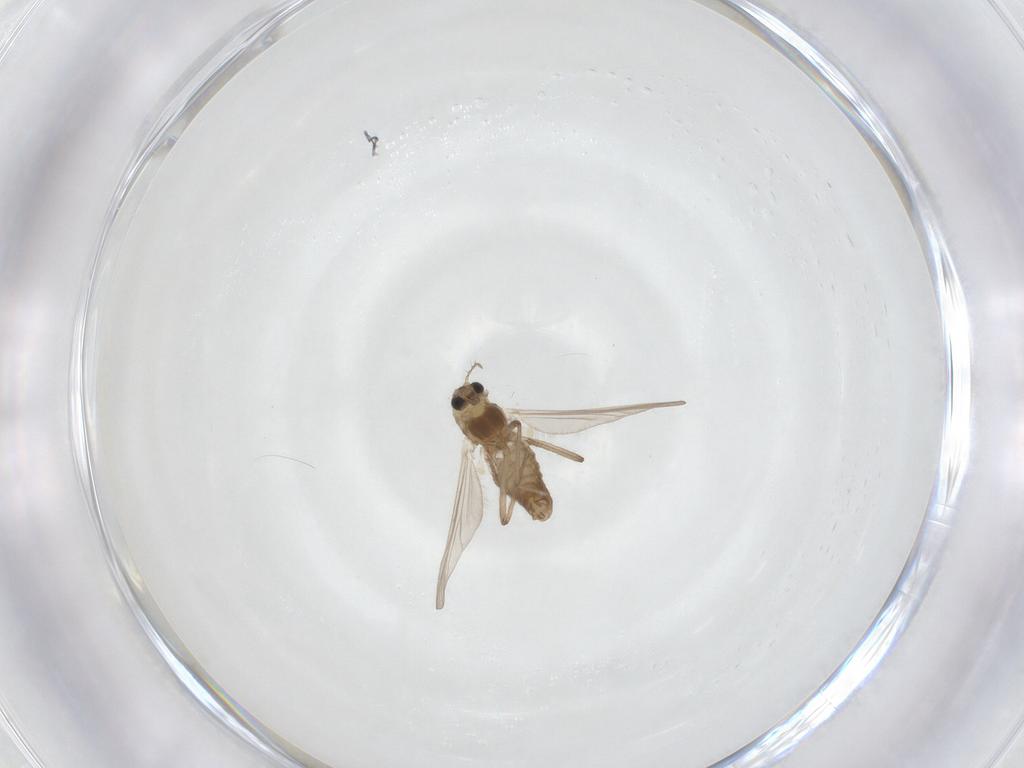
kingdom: Animalia
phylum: Arthropoda
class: Insecta
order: Diptera
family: Chironomidae
